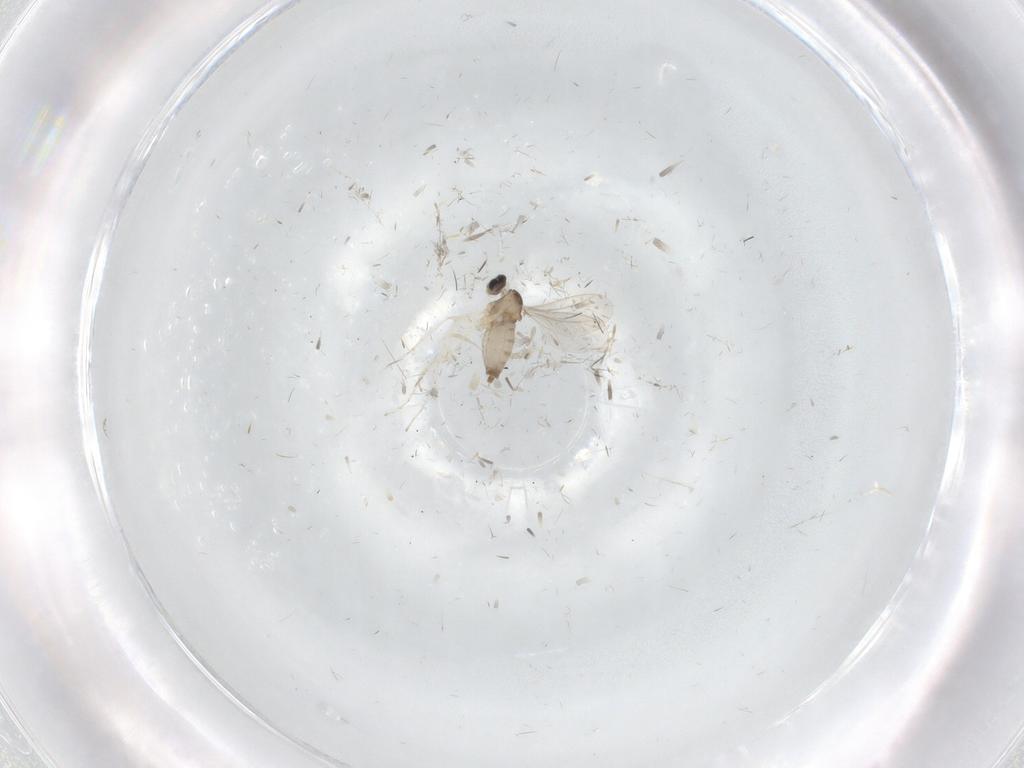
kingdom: Animalia
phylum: Arthropoda
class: Insecta
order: Diptera
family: Cecidomyiidae
